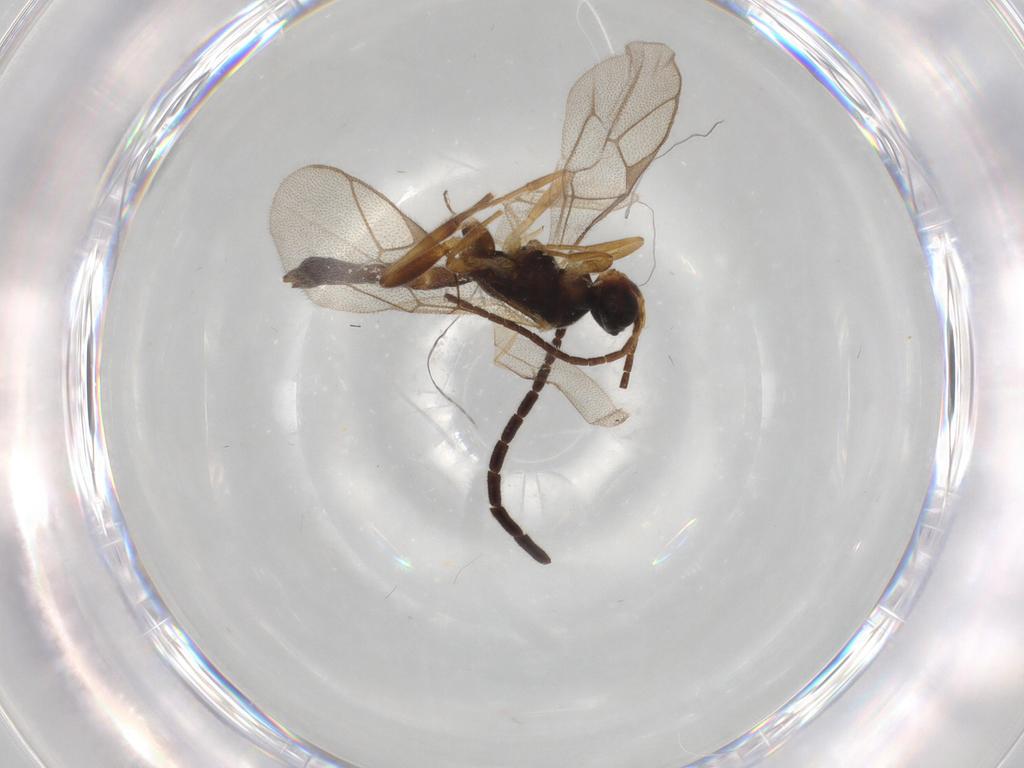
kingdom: Animalia
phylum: Arthropoda
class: Insecta
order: Hymenoptera
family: Ichneumonidae
